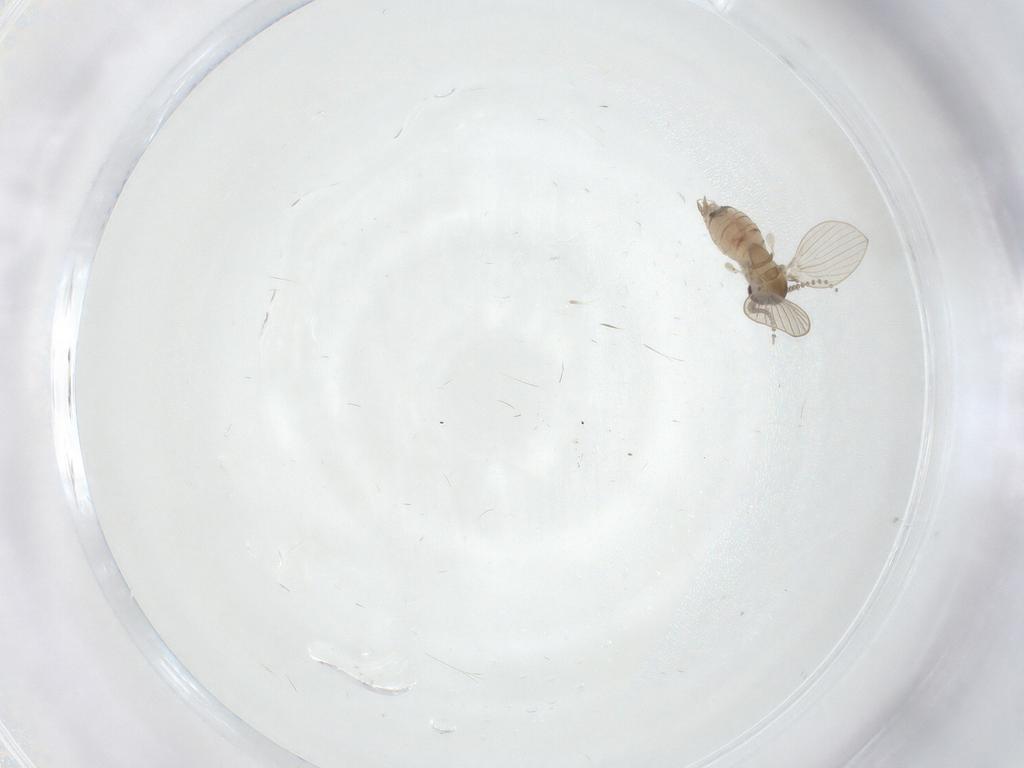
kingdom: Animalia
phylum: Arthropoda
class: Insecta
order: Diptera
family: Psychodidae
